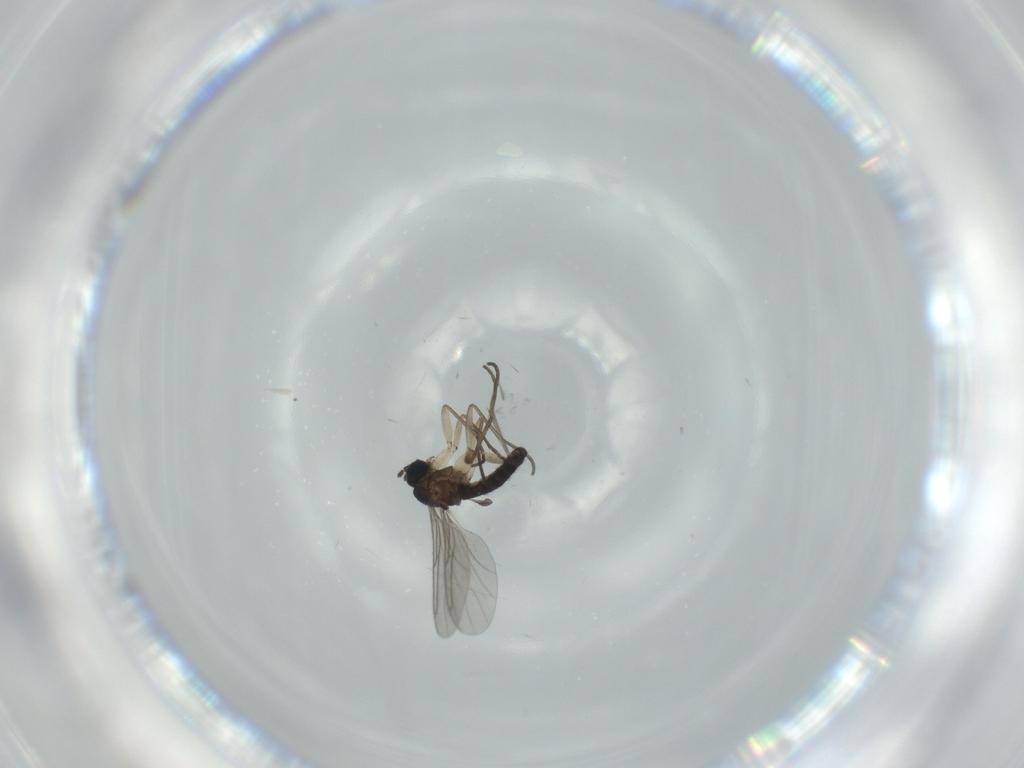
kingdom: Animalia
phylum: Arthropoda
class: Insecta
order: Diptera
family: Sciaridae
